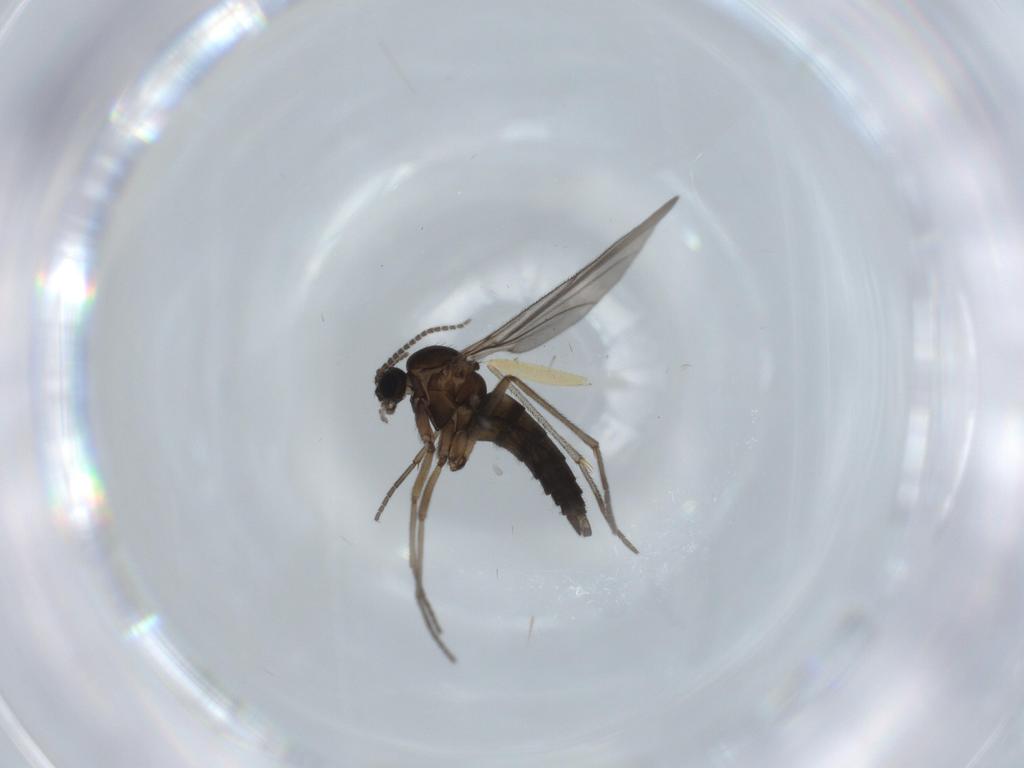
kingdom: Animalia
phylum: Arthropoda
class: Insecta
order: Diptera
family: Sciaridae
